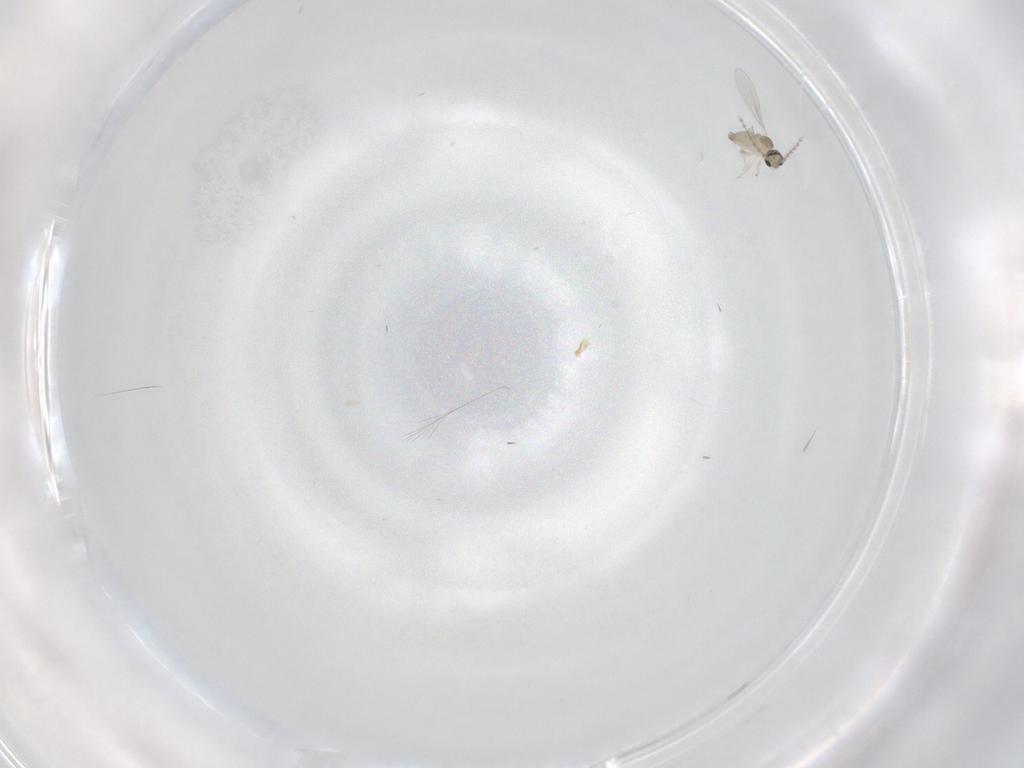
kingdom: Animalia
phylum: Arthropoda
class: Insecta
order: Diptera
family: Cecidomyiidae
